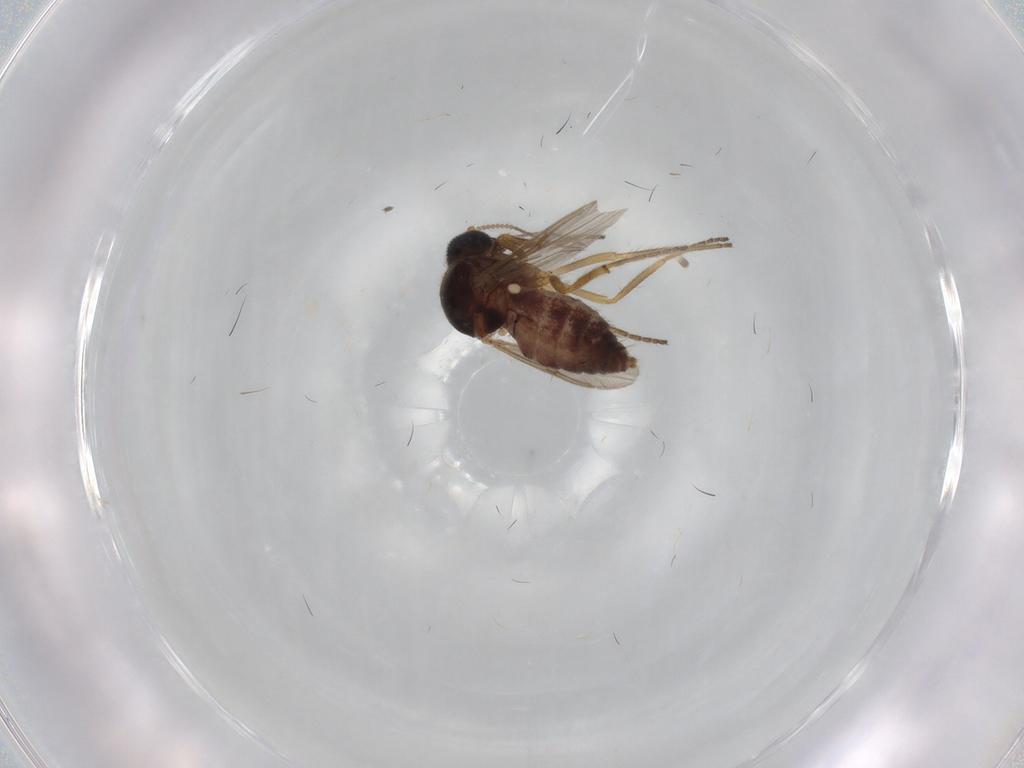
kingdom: Animalia
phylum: Arthropoda
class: Insecta
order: Diptera
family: Ceratopogonidae
